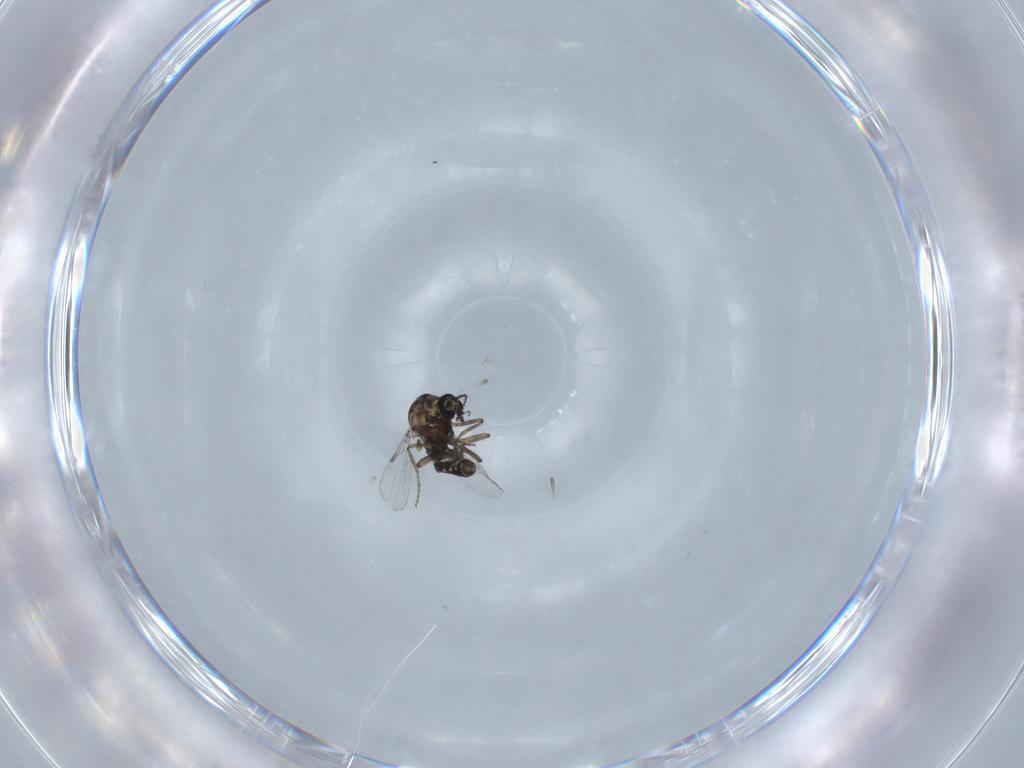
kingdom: Animalia
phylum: Arthropoda
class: Insecta
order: Diptera
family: Ceratopogonidae
